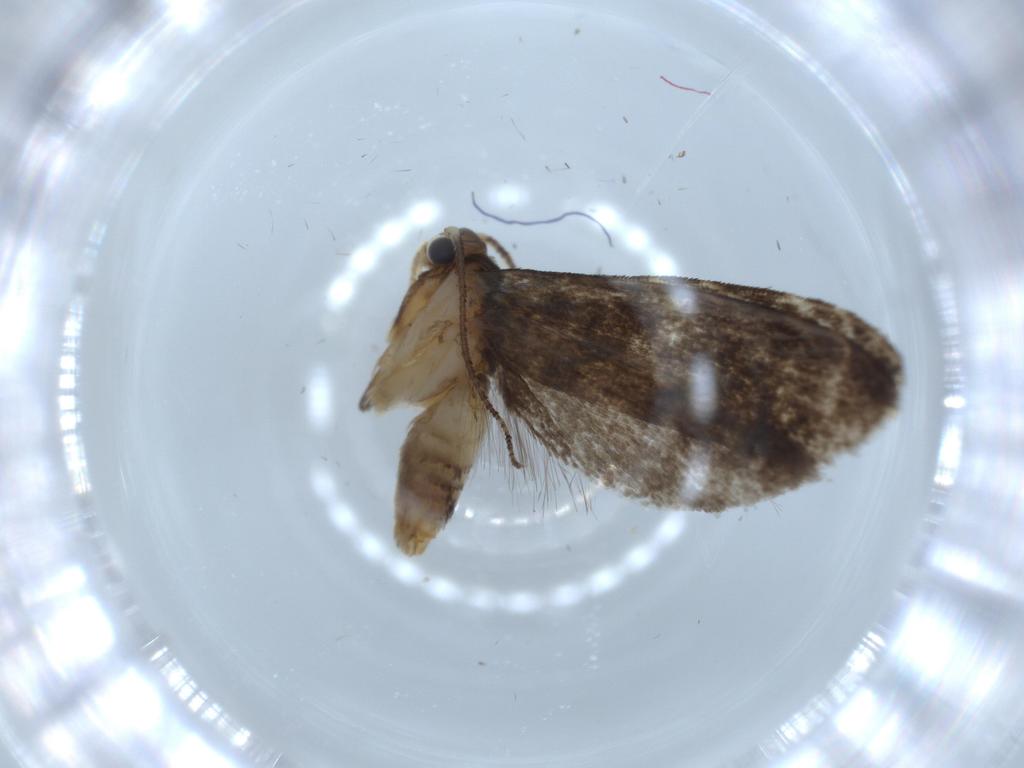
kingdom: Animalia
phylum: Arthropoda
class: Insecta
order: Lepidoptera
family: Tineidae
